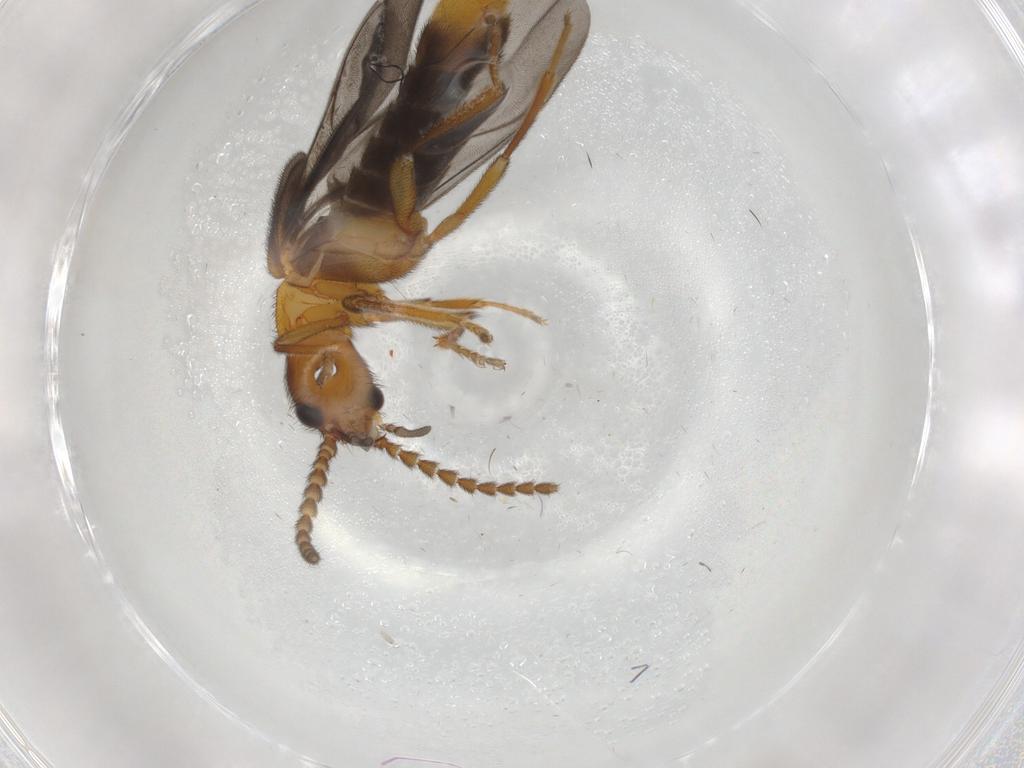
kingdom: Animalia
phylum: Arthropoda
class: Insecta
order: Coleoptera
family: Omethidae
